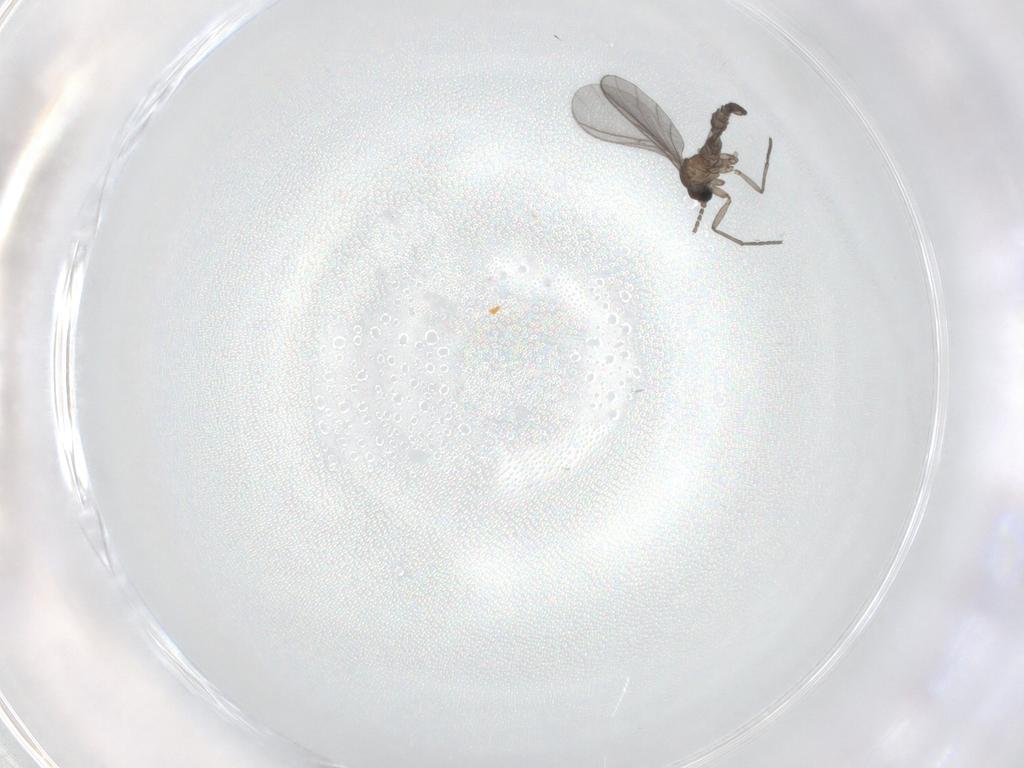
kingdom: Animalia
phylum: Arthropoda
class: Insecta
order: Diptera
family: Sciaridae
